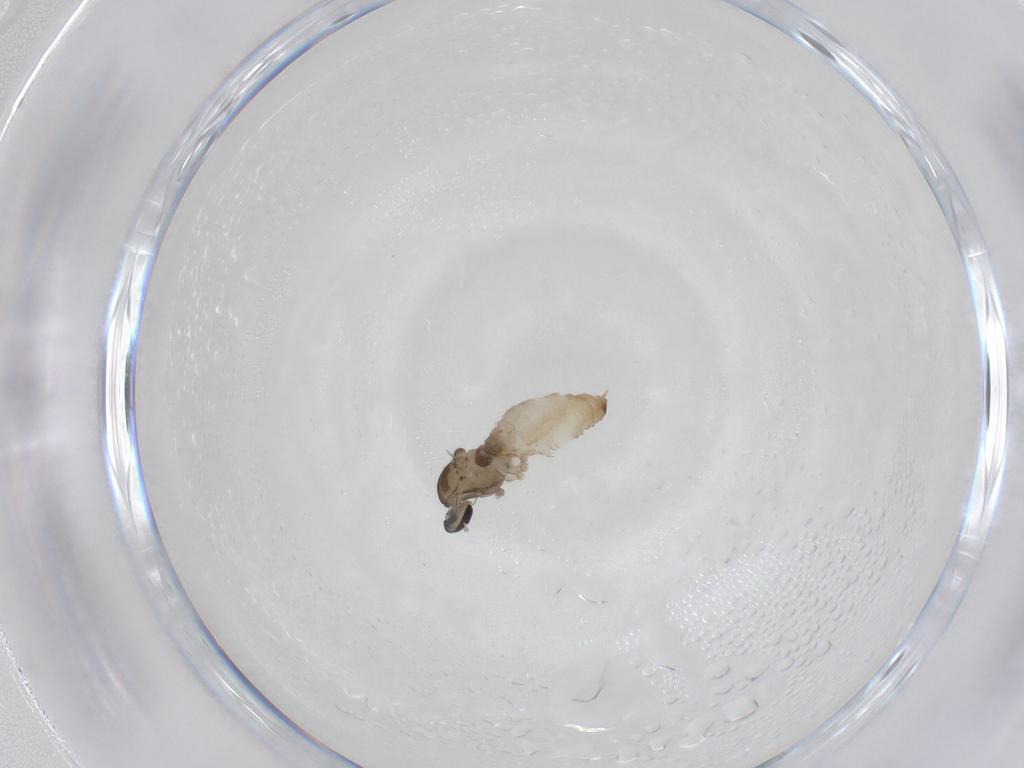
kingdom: Animalia
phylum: Arthropoda
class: Insecta
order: Diptera
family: Cecidomyiidae
